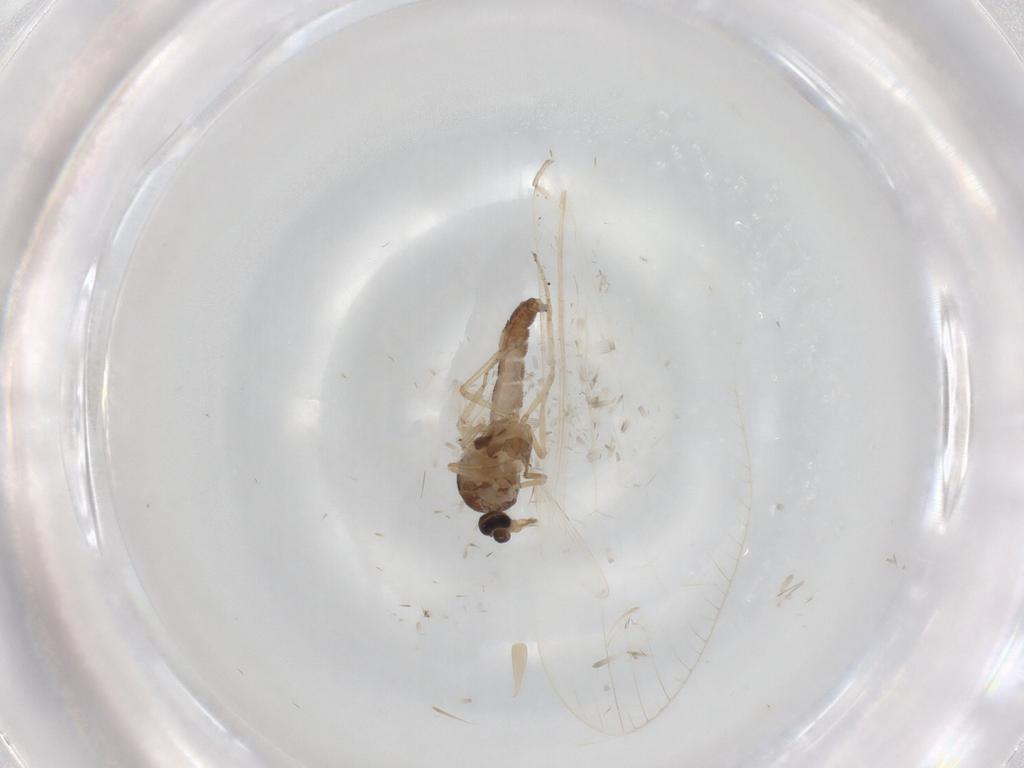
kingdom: Animalia
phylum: Arthropoda
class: Insecta
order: Diptera
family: Ceratopogonidae
